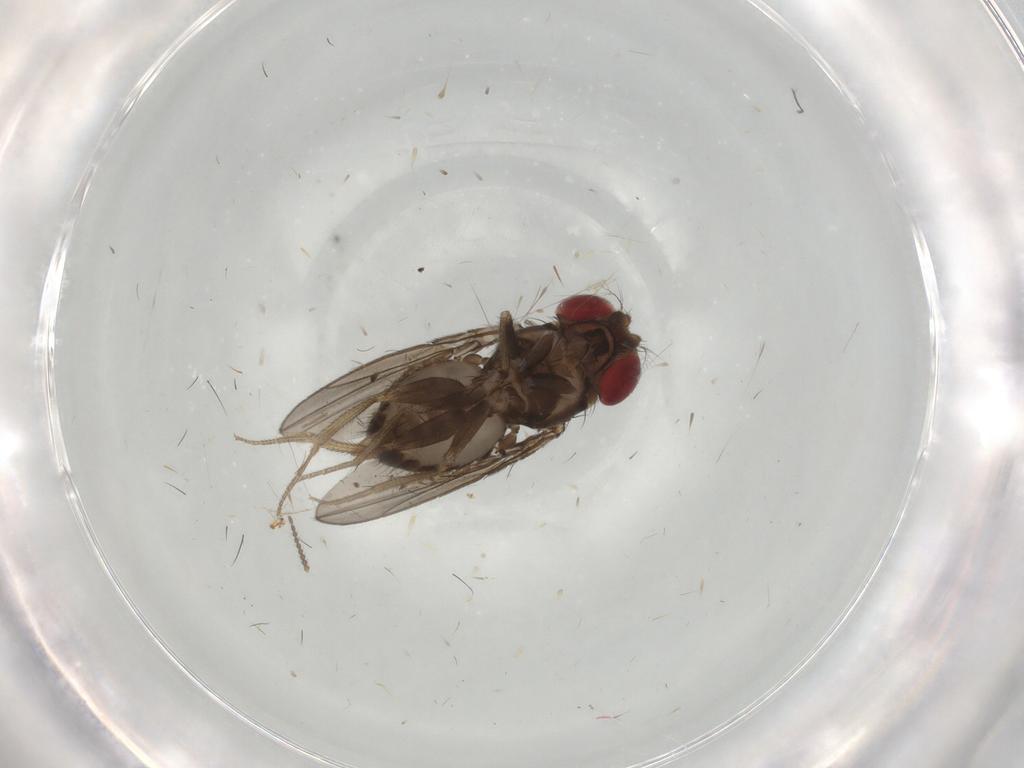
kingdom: Animalia
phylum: Arthropoda
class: Insecta
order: Diptera
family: Drosophilidae
